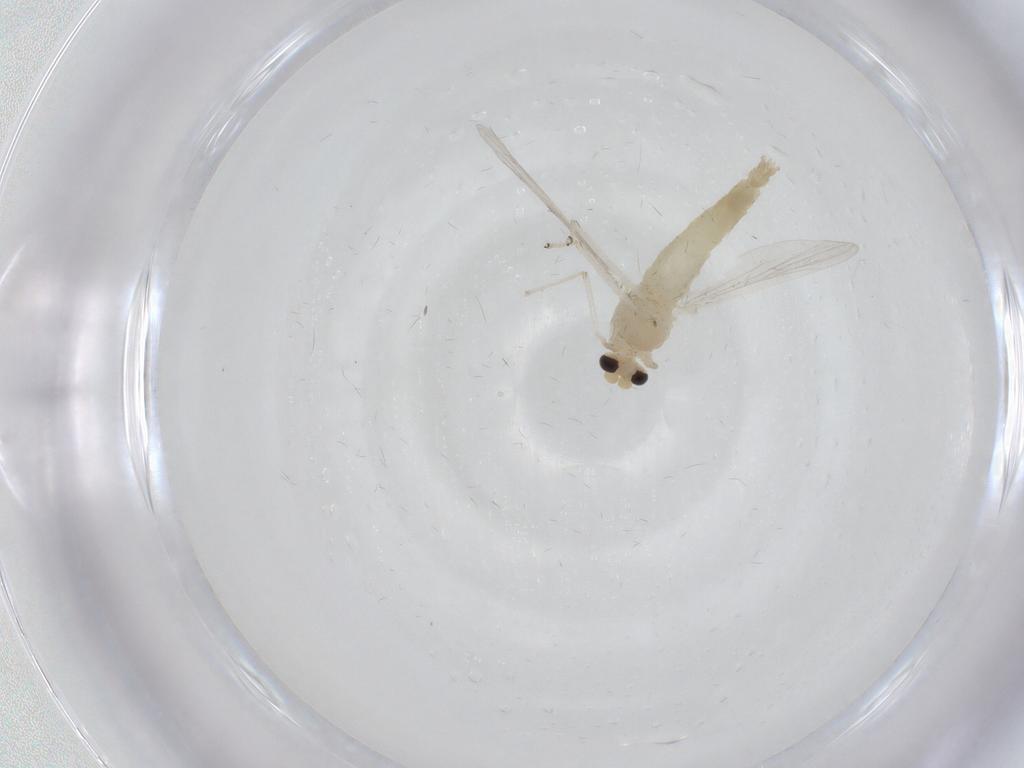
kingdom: Animalia
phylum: Arthropoda
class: Insecta
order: Diptera
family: Chironomidae
